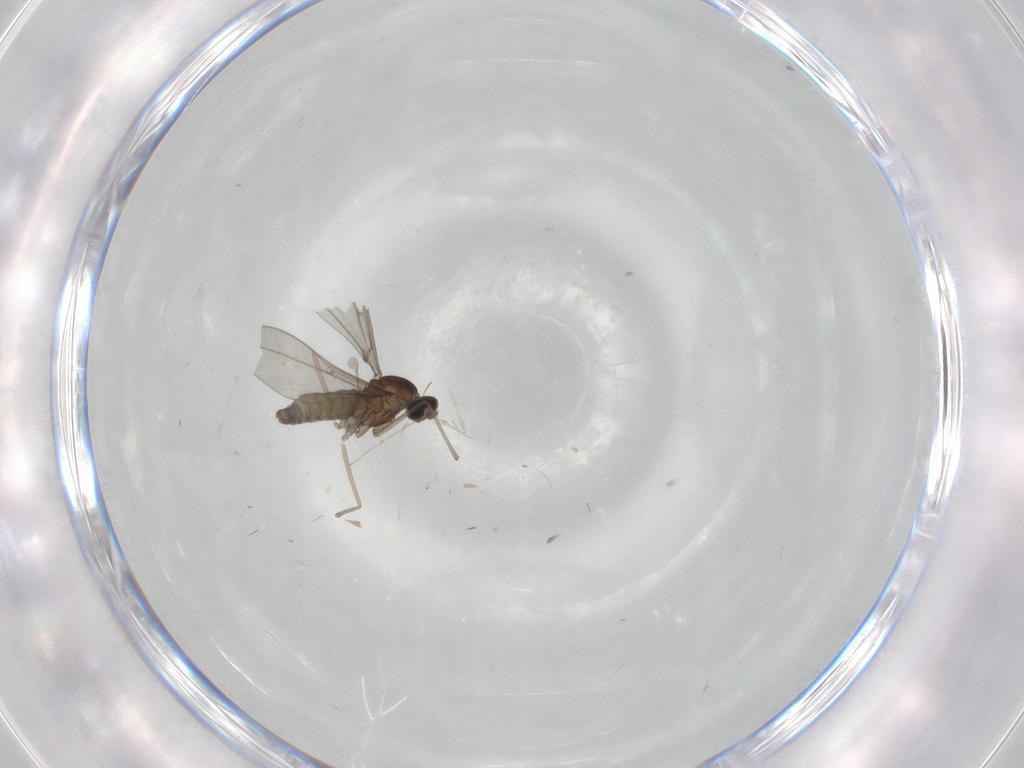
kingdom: Animalia
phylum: Arthropoda
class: Insecta
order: Diptera
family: Cecidomyiidae
